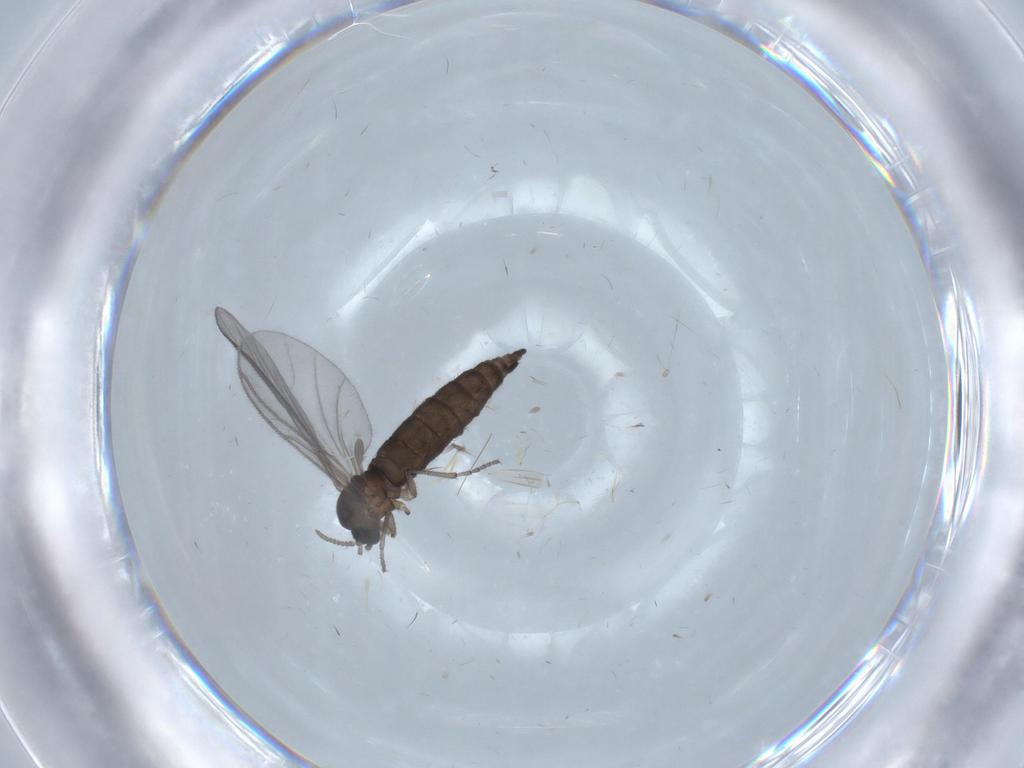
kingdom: Animalia
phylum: Arthropoda
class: Insecta
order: Diptera
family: Sciaridae
